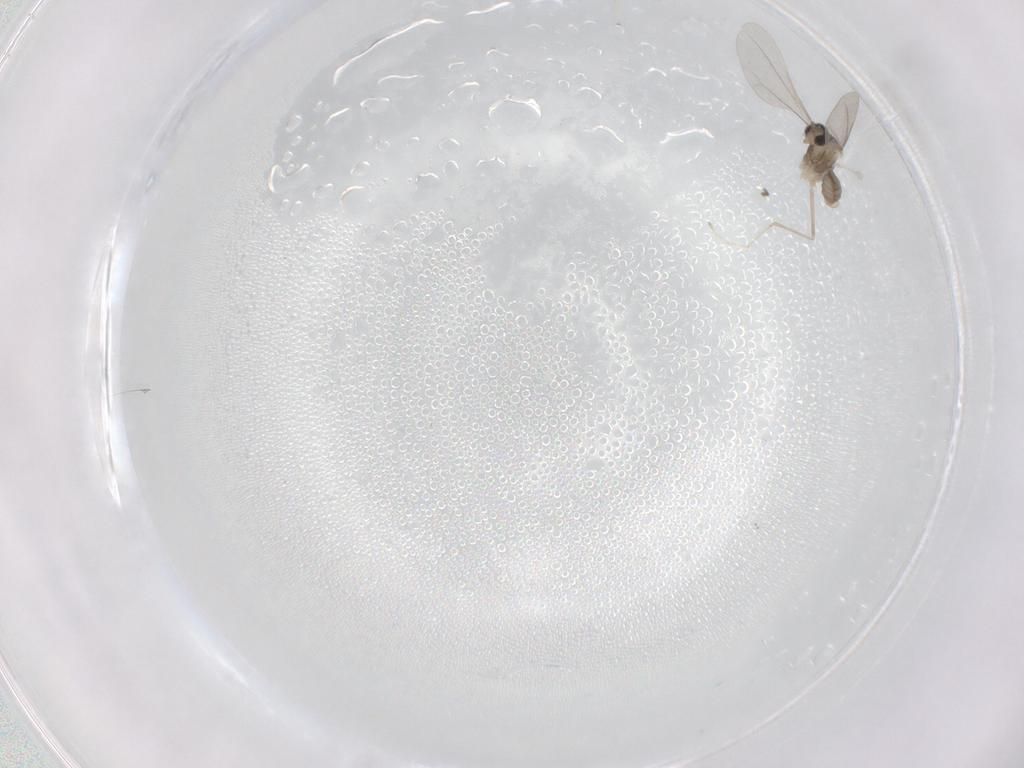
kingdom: Animalia
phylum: Arthropoda
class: Insecta
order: Diptera
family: Cecidomyiidae
